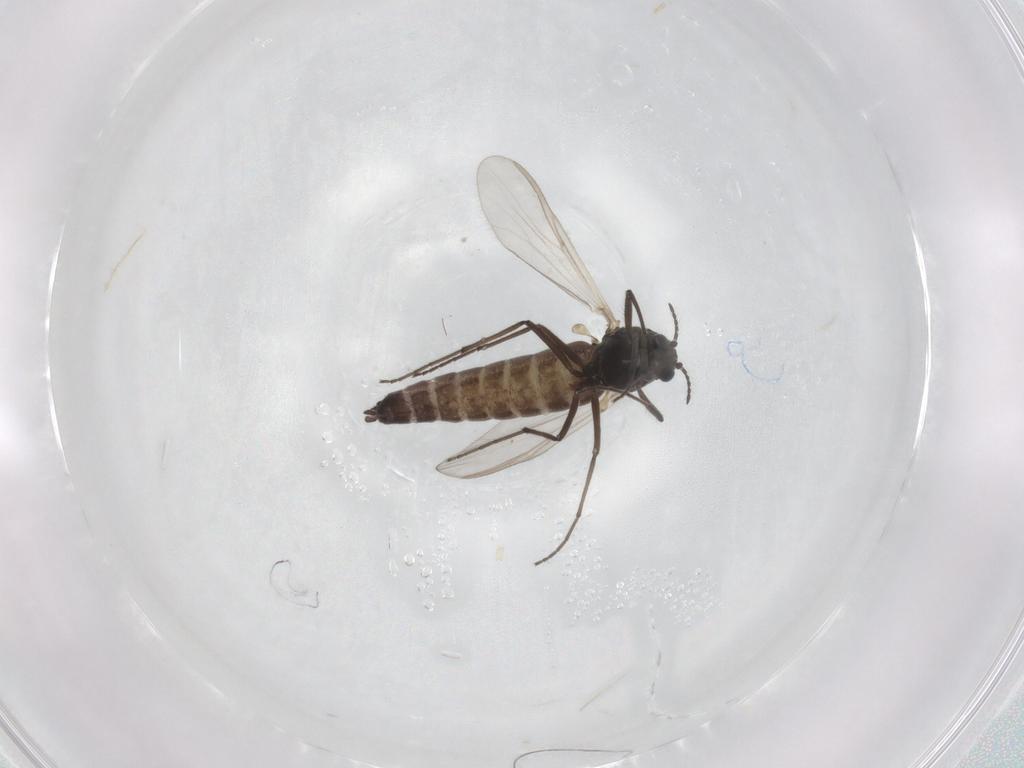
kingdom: Animalia
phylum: Arthropoda
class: Insecta
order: Diptera
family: Chironomidae
